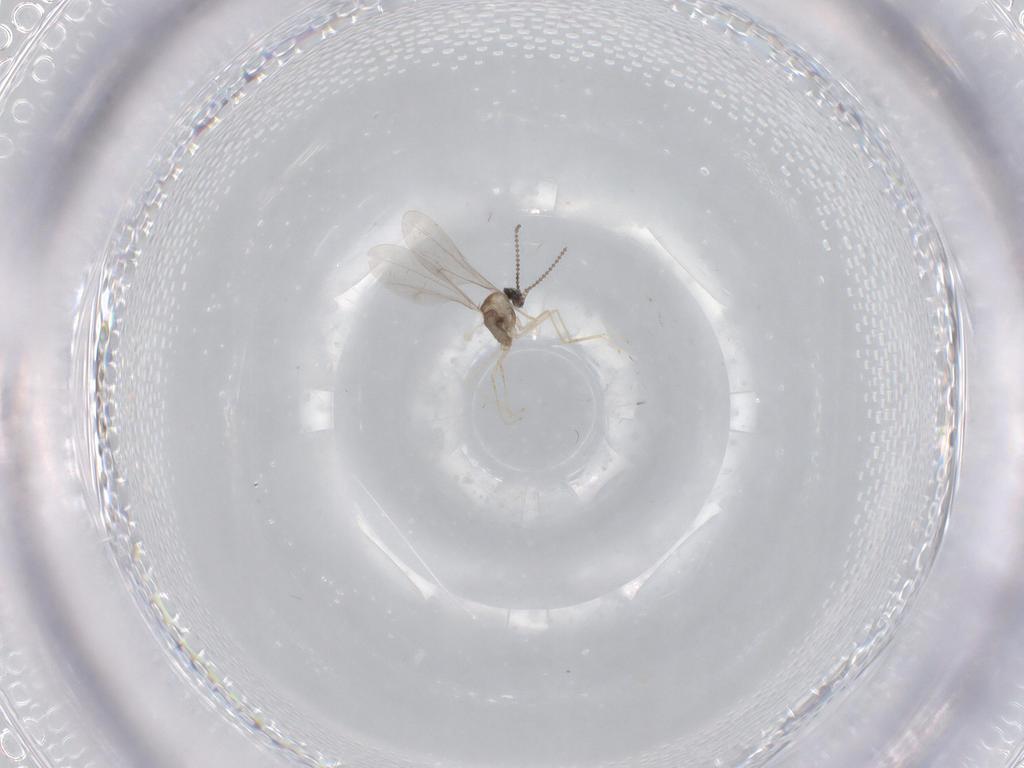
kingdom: Animalia
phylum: Arthropoda
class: Insecta
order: Diptera
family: Cecidomyiidae
